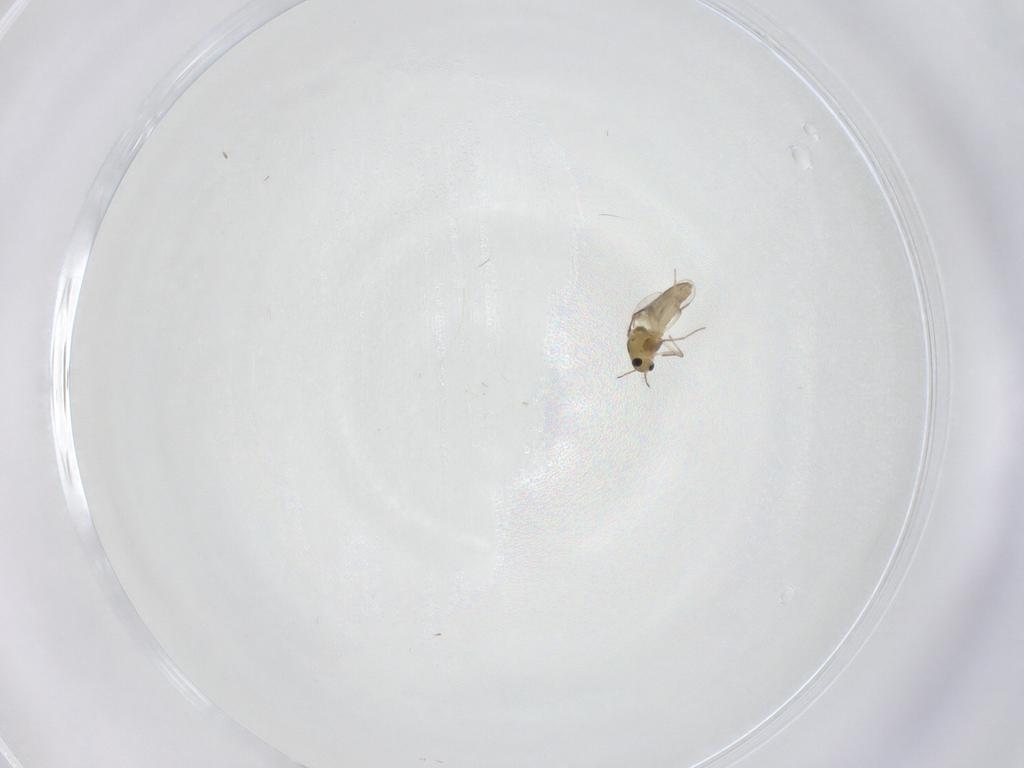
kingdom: Animalia
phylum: Arthropoda
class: Insecta
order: Diptera
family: Chironomidae
